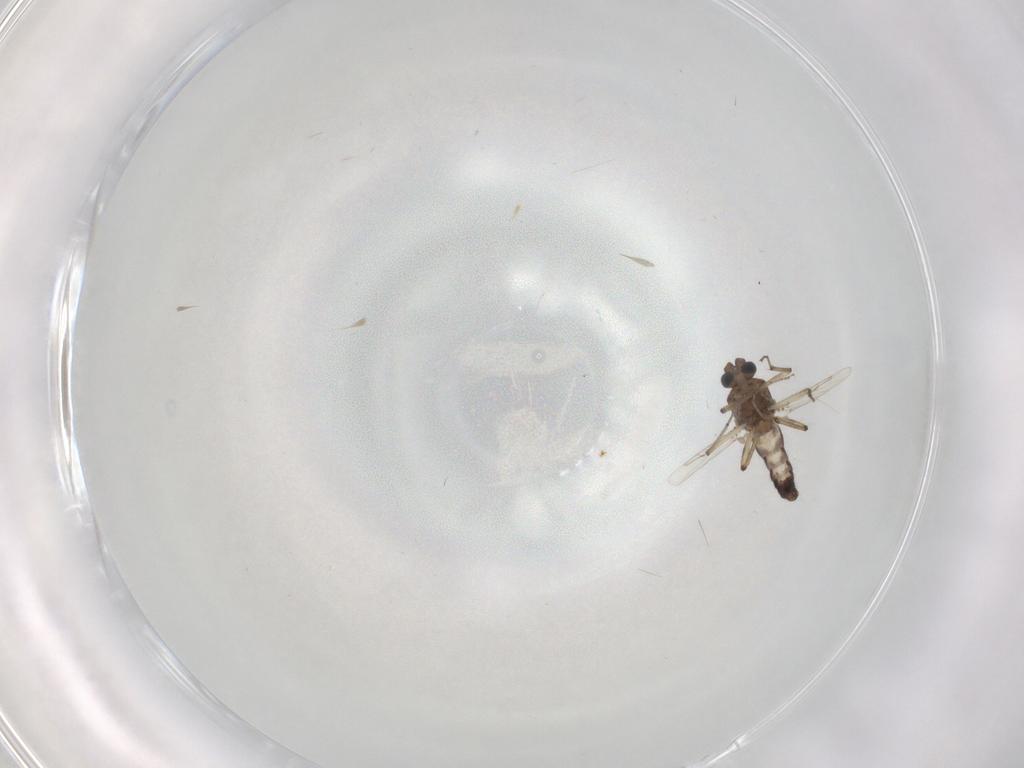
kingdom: Animalia
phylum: Arthropoda
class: Insecta
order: Diptera
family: Ceratopogonidae
